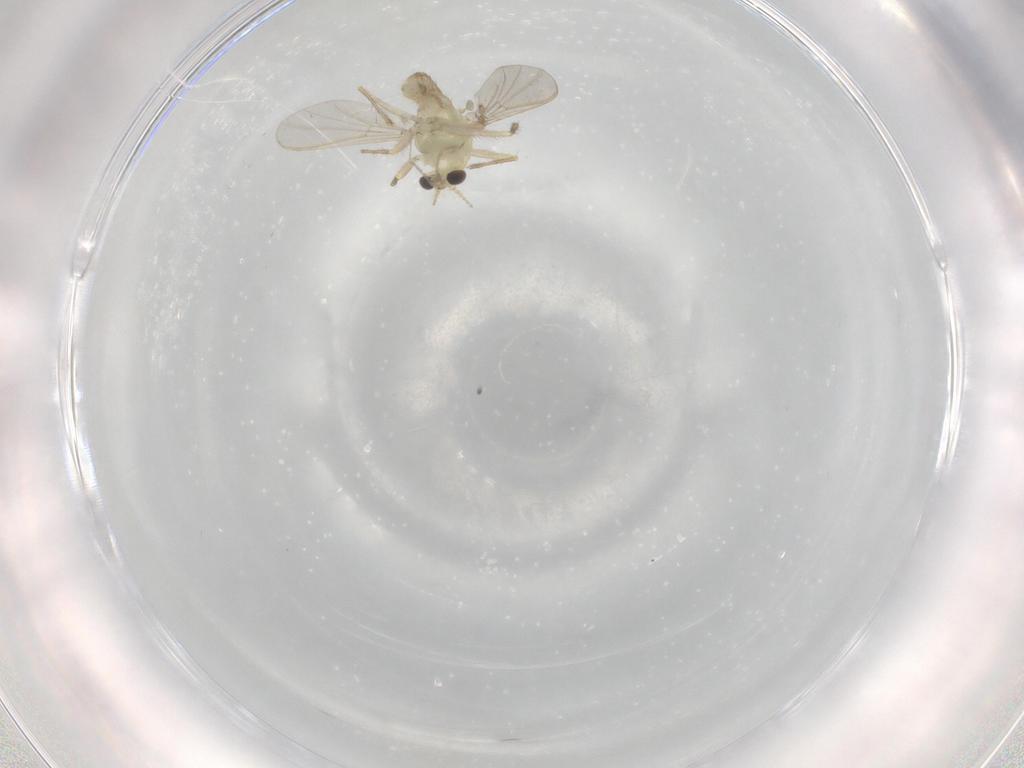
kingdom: Animalia
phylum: Arthropoda
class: Insecta
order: Diptera
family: Chironomidae
